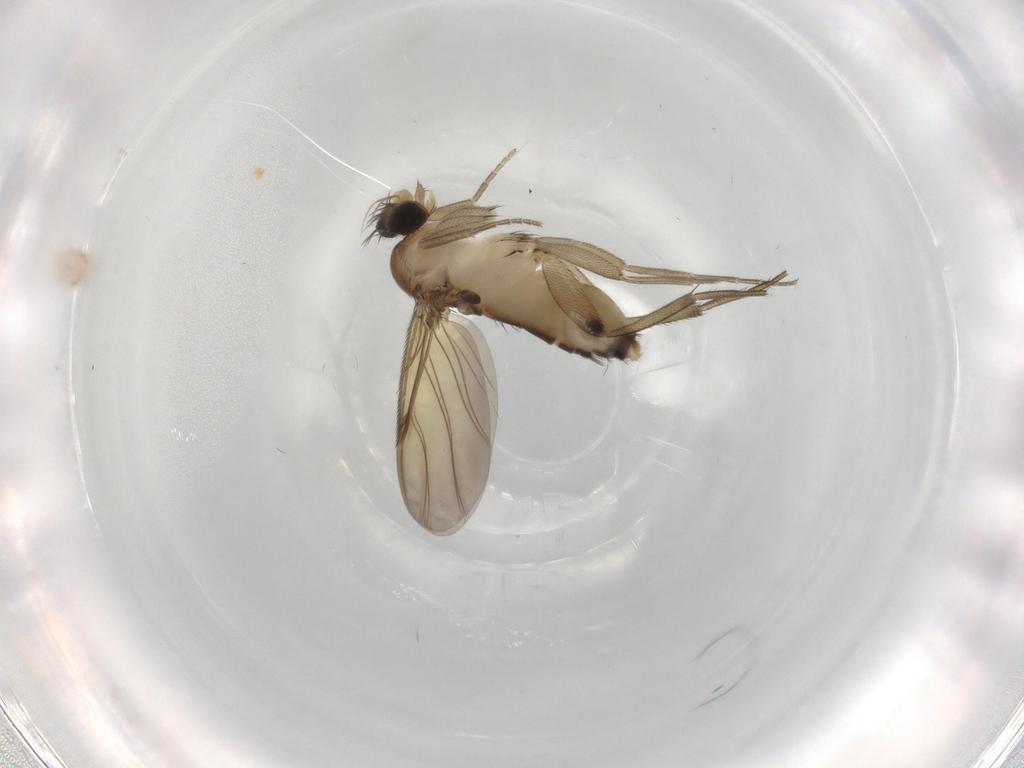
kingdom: Animalia
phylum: Arthropoda
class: Insecta
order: Diptera
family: Phoridae
